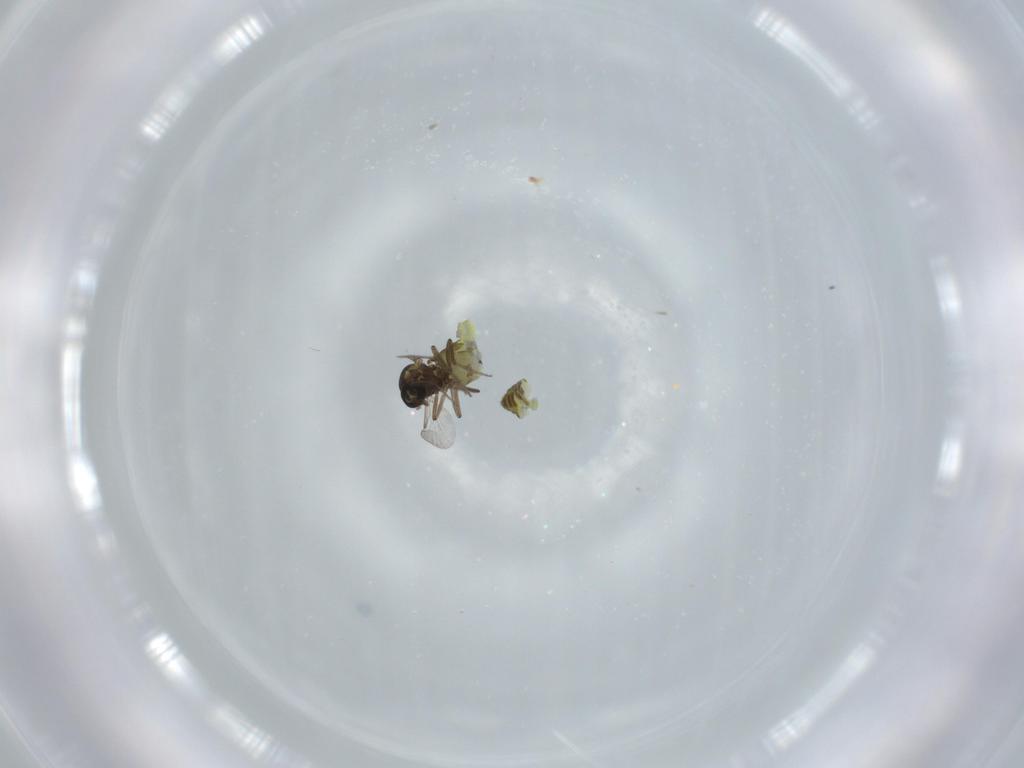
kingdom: Animalia
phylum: Arthropoda
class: Insecta
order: Diptera
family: Ceratopogonidae
